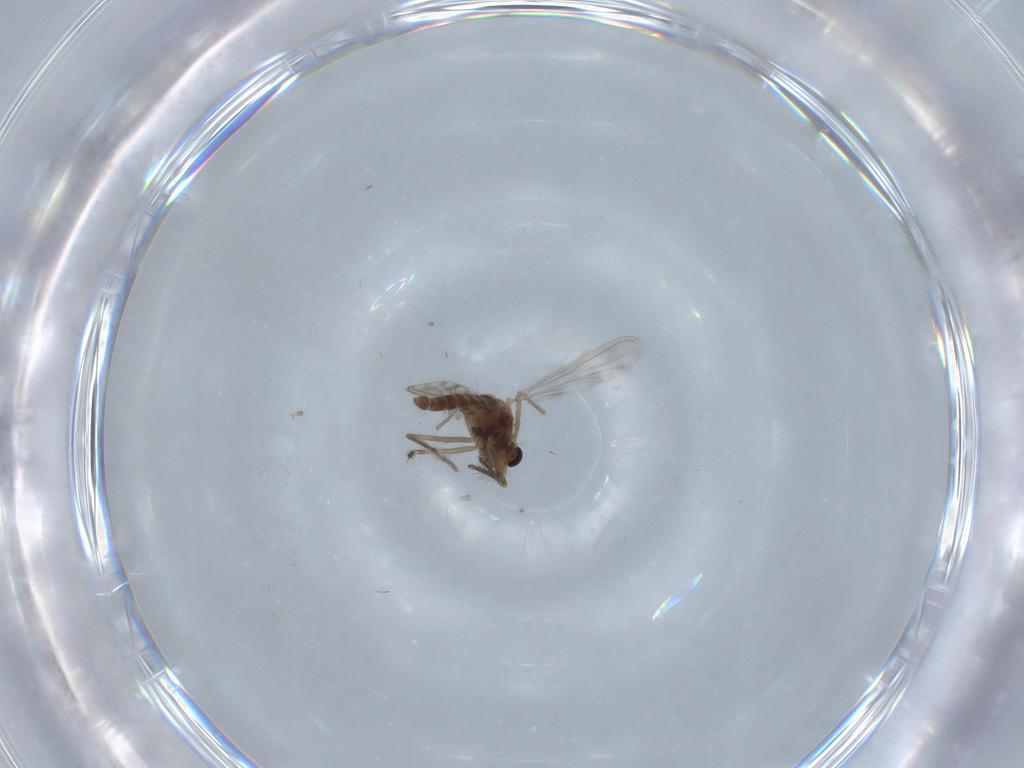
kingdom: Animalia
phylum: Arthropoda
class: Insecta
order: Diptera
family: Chironomidae
